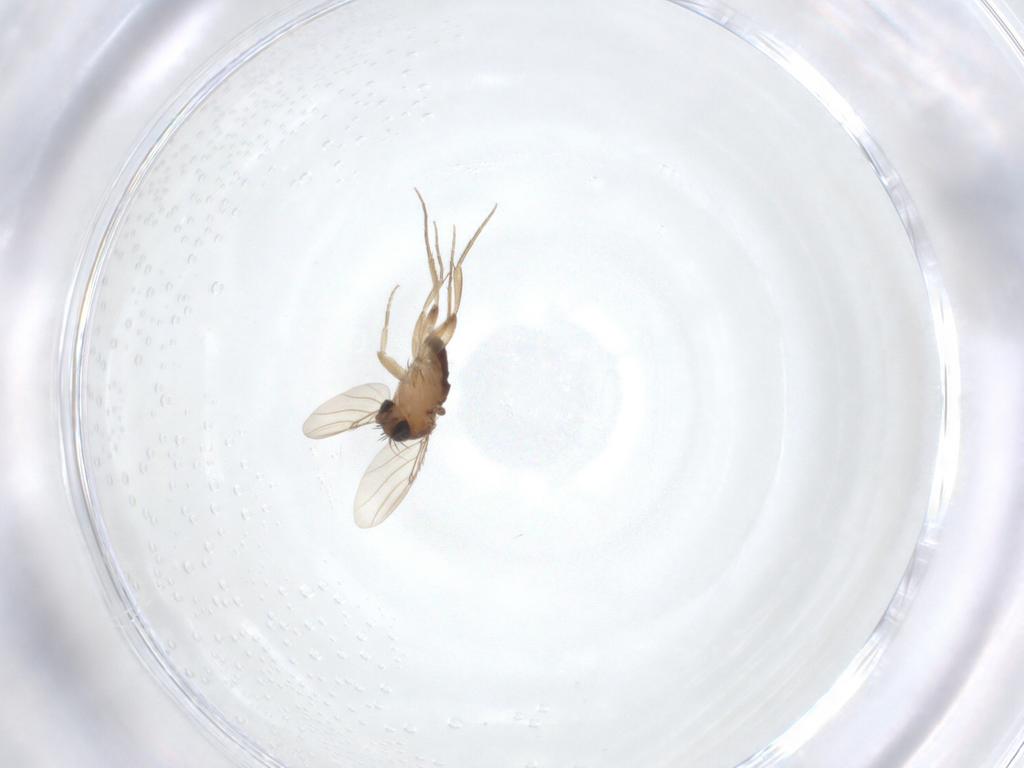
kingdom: Animalia
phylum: Arthropoda
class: Insecta
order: Diptera
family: Phoridae
